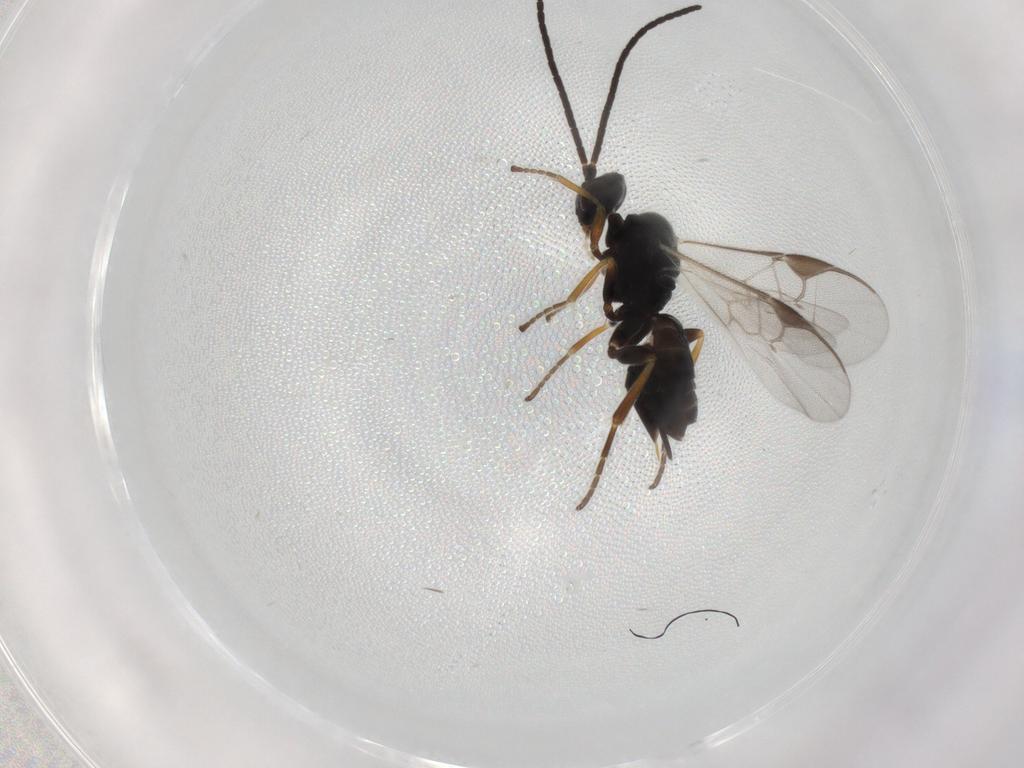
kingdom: Animalia
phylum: Arthropoda
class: Insecta
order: Hymenoptera
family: Braconidae
